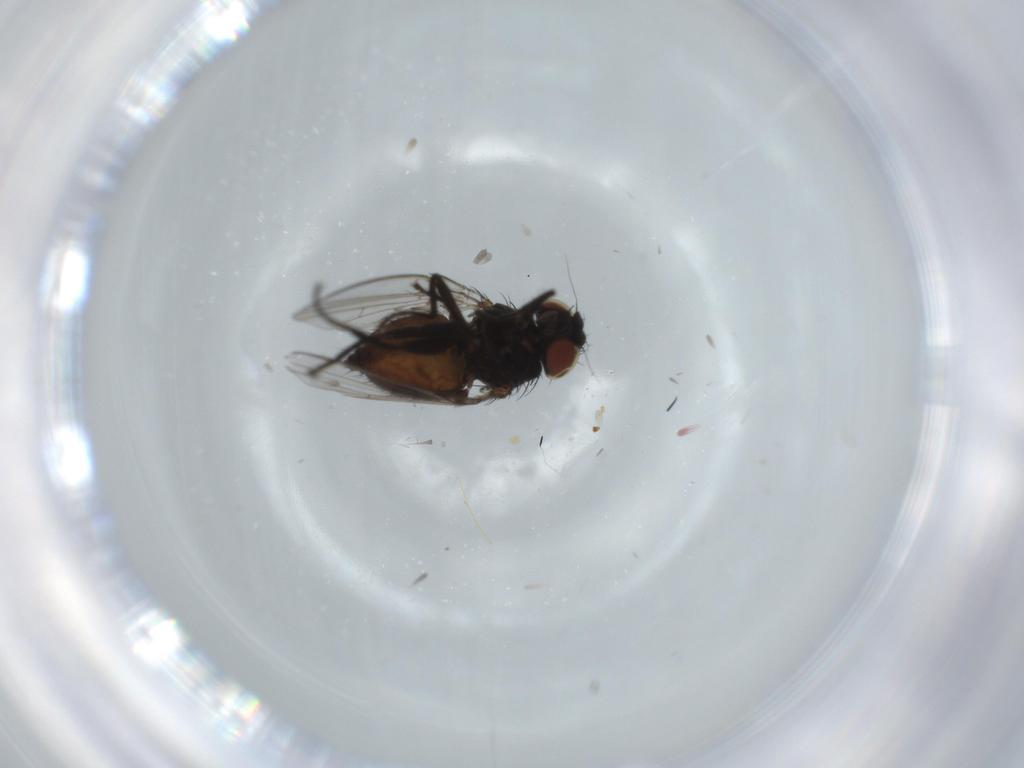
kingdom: Animalia
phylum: Arthropoda
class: Insecta
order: Diptera
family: Milichiidae
